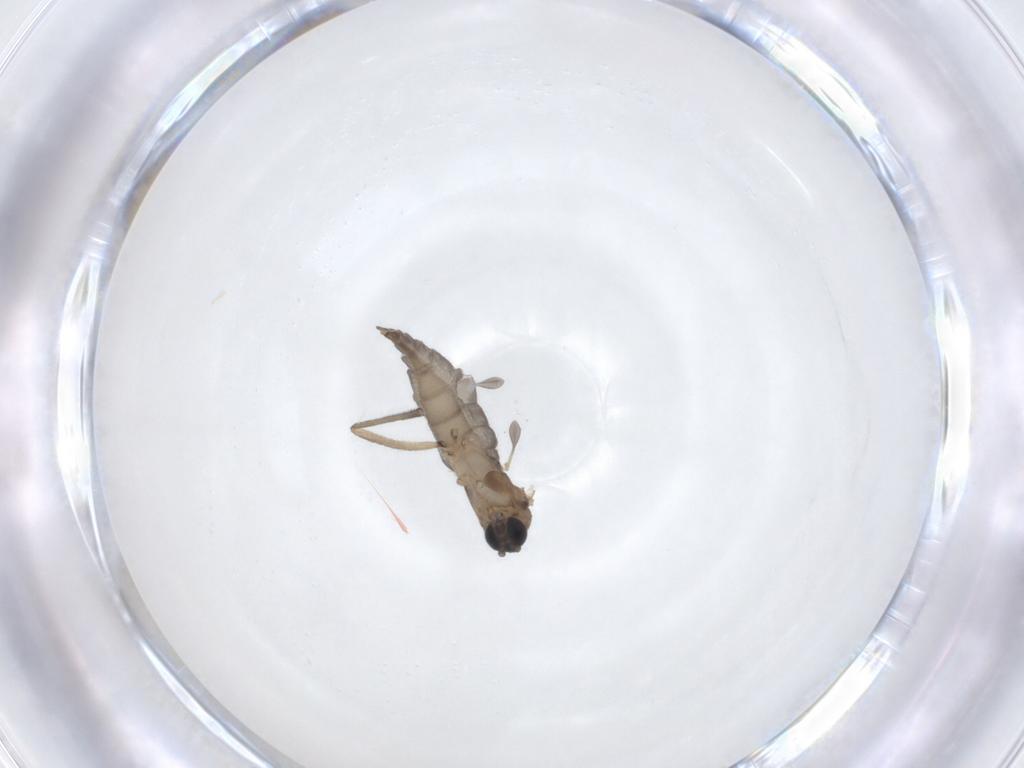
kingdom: Animalia
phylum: Arthropoda
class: Insecta
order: Diptera
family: Sciaridae
